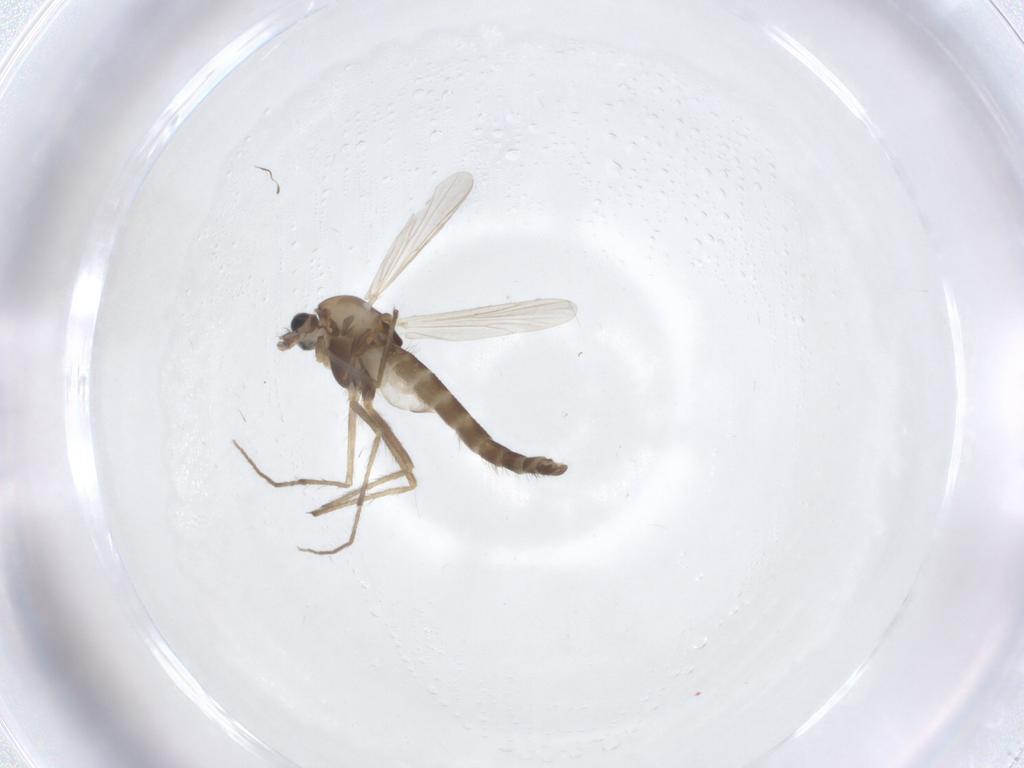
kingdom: Animalia
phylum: Arthropoda
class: Insecta
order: Diptera
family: Chironomidae
